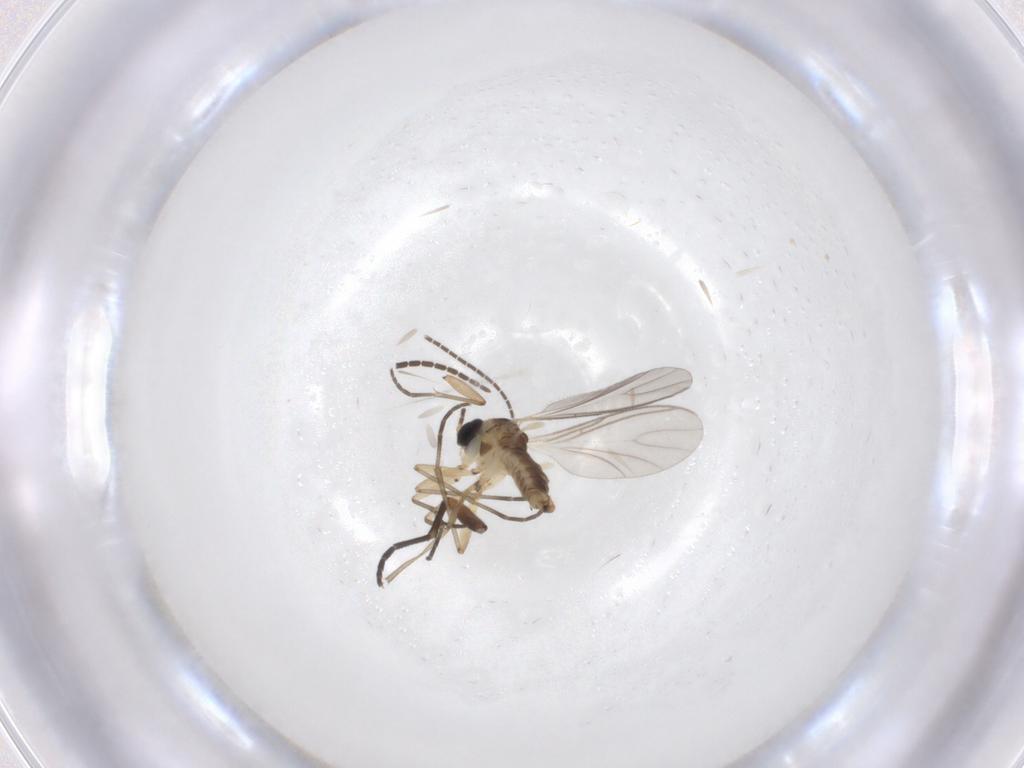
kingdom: Animalia
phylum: Arthropoda
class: Insecta
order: Diptera
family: Sciaridae
